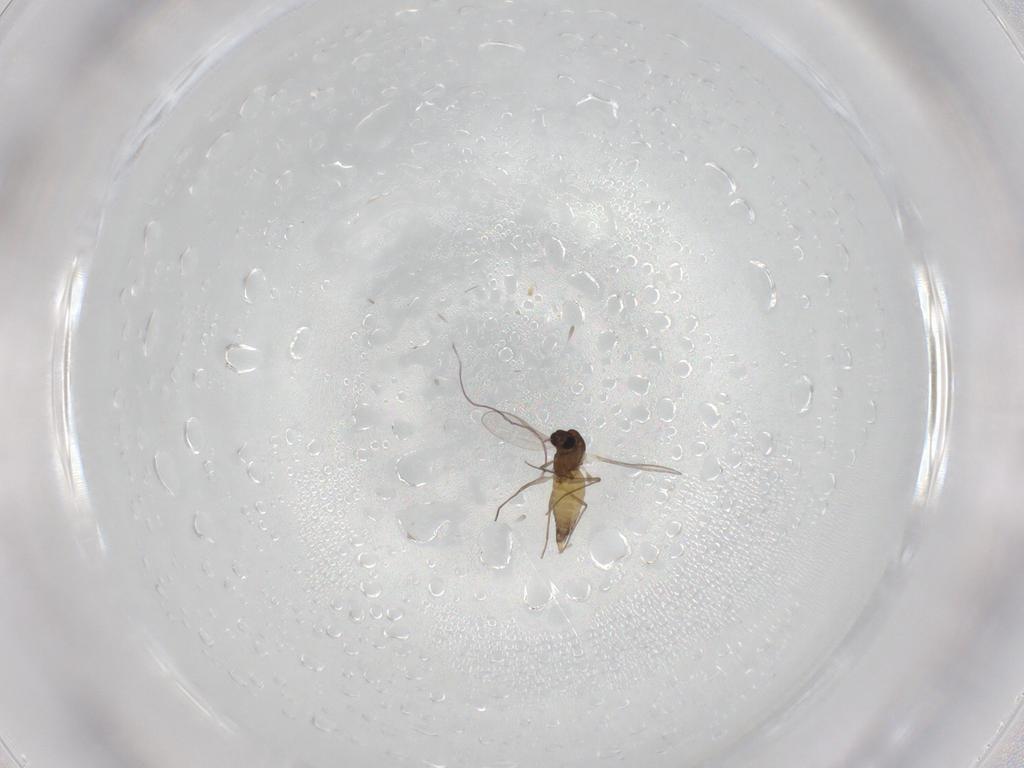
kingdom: Animalia
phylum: Arthropoda
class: Insecta
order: Diptera
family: Chironomidae
